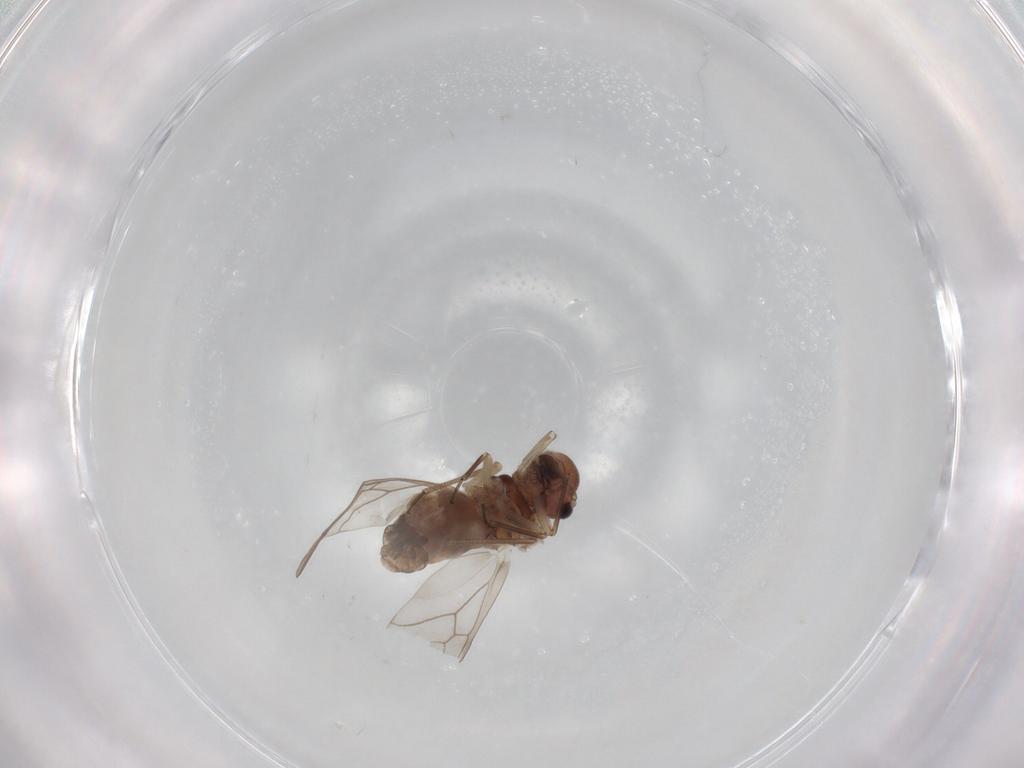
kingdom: Animalia
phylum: Arthropoda
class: Insecta
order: Psocodea
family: Peripsocidae
